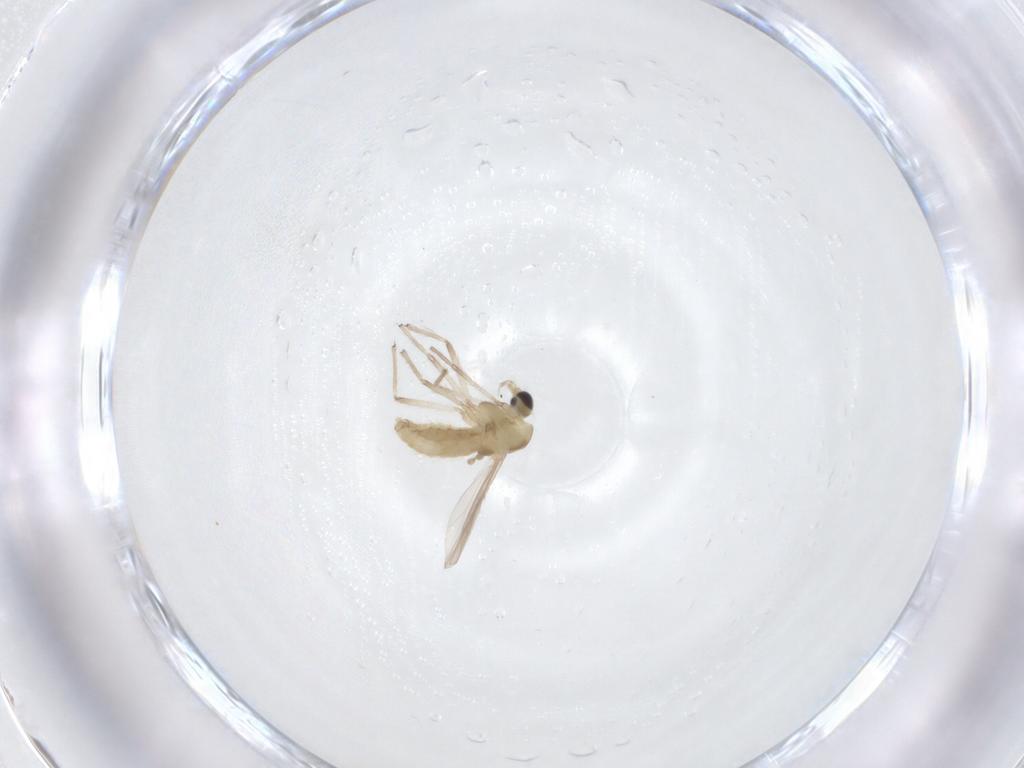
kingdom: Animalia
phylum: Arthropoda
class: Insecta
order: Diptera
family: Chironomidae
